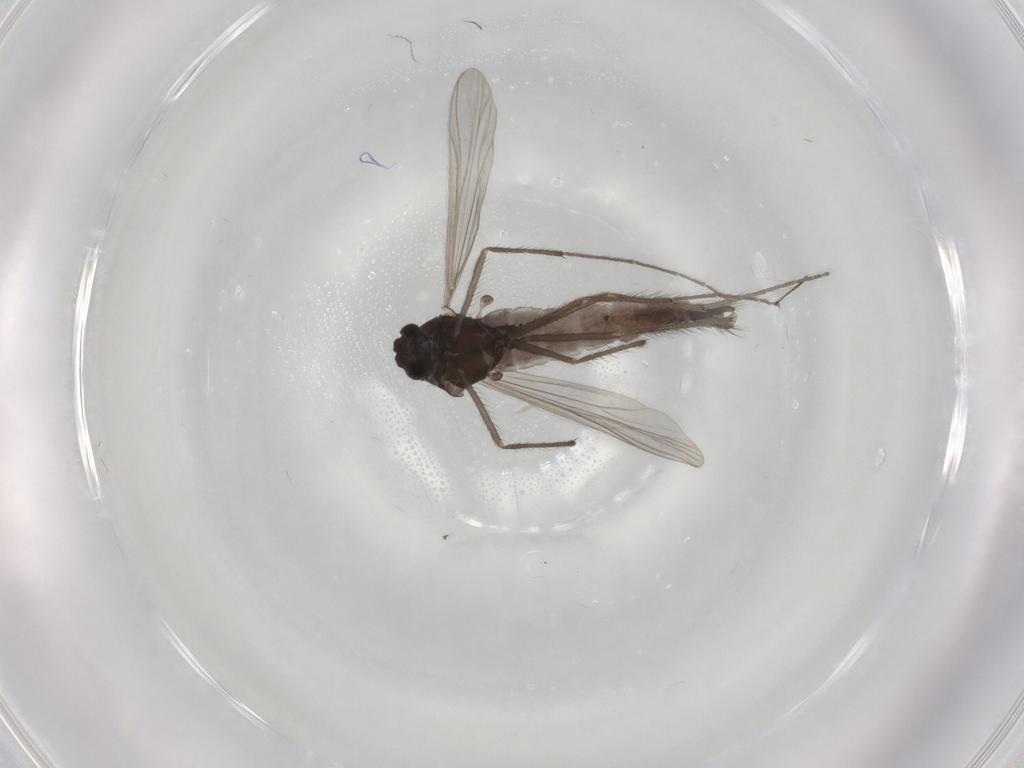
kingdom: Animalia
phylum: Arthropoda
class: Insecta
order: Diptera
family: Chironomidae
